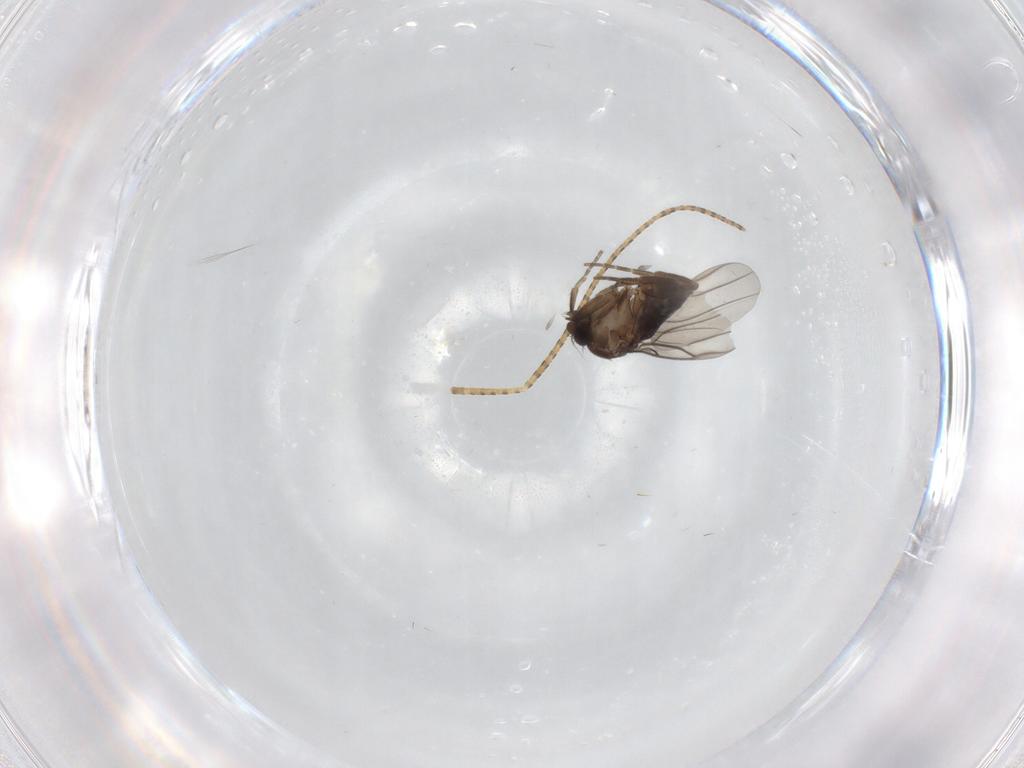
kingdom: Animalia
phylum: Arthropoda
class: Insecta
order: Diptera
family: Phoridae
